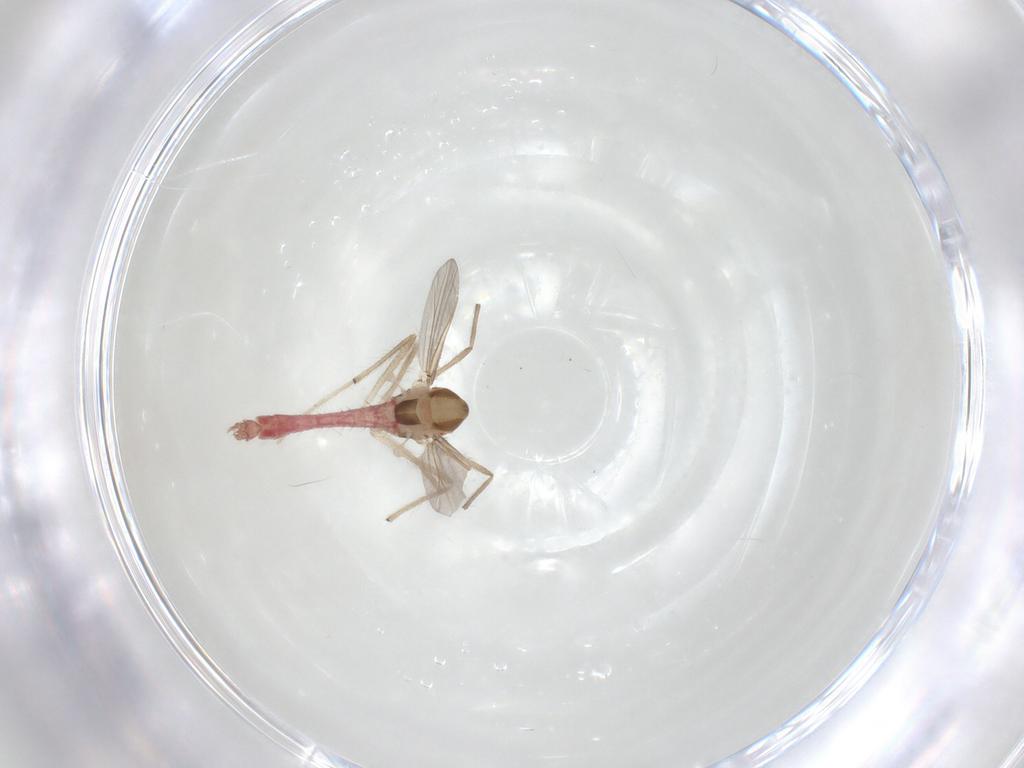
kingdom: Animalia
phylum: Arthropoda
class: Insecta
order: Diptera
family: Chironomidae
